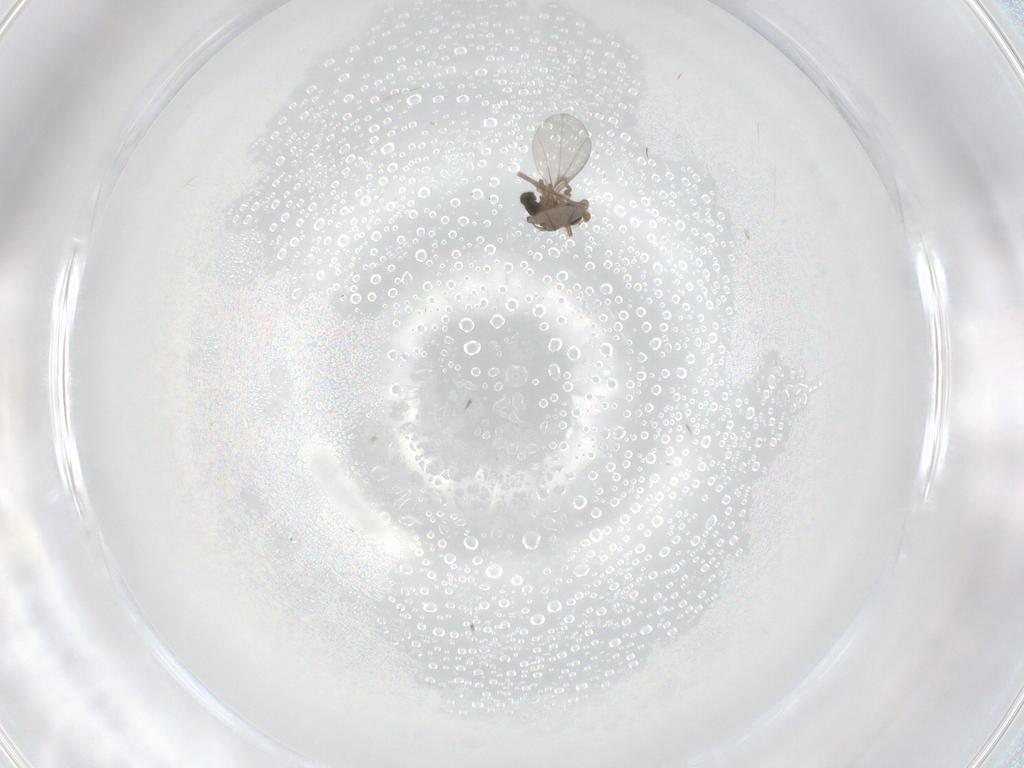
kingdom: Animalia
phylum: Arthropoda
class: Insecta
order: Diptera
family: Phoridae
